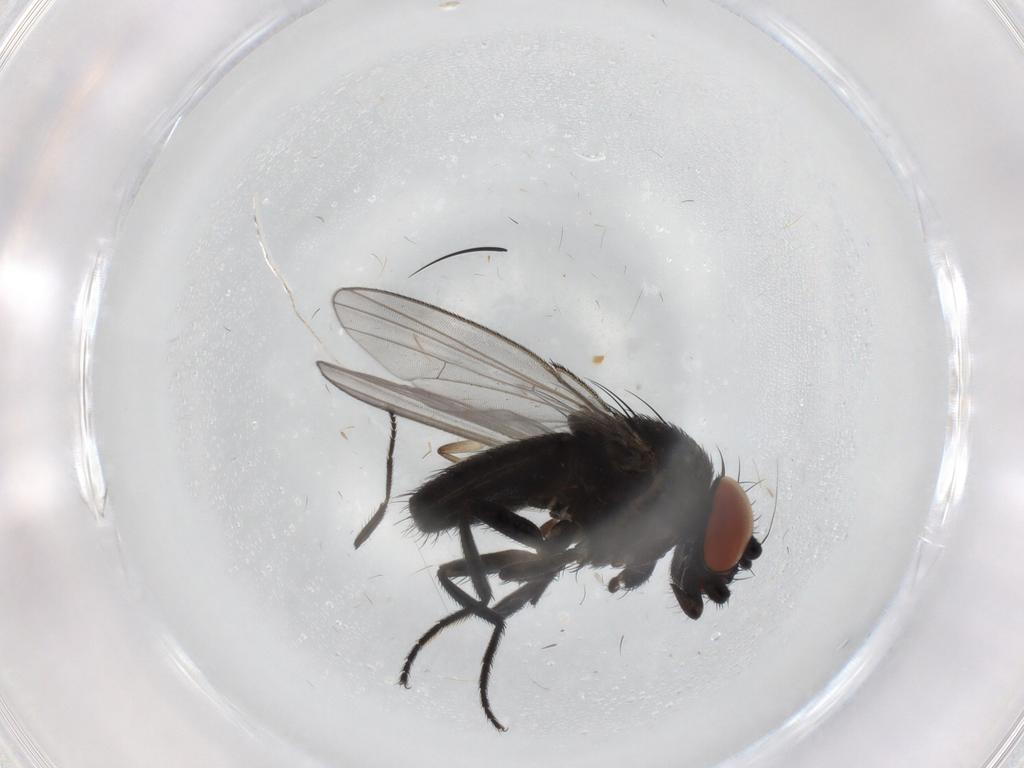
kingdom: Animalia
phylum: Arthropoda
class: Insecta
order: Diptera
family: Milichiidae
